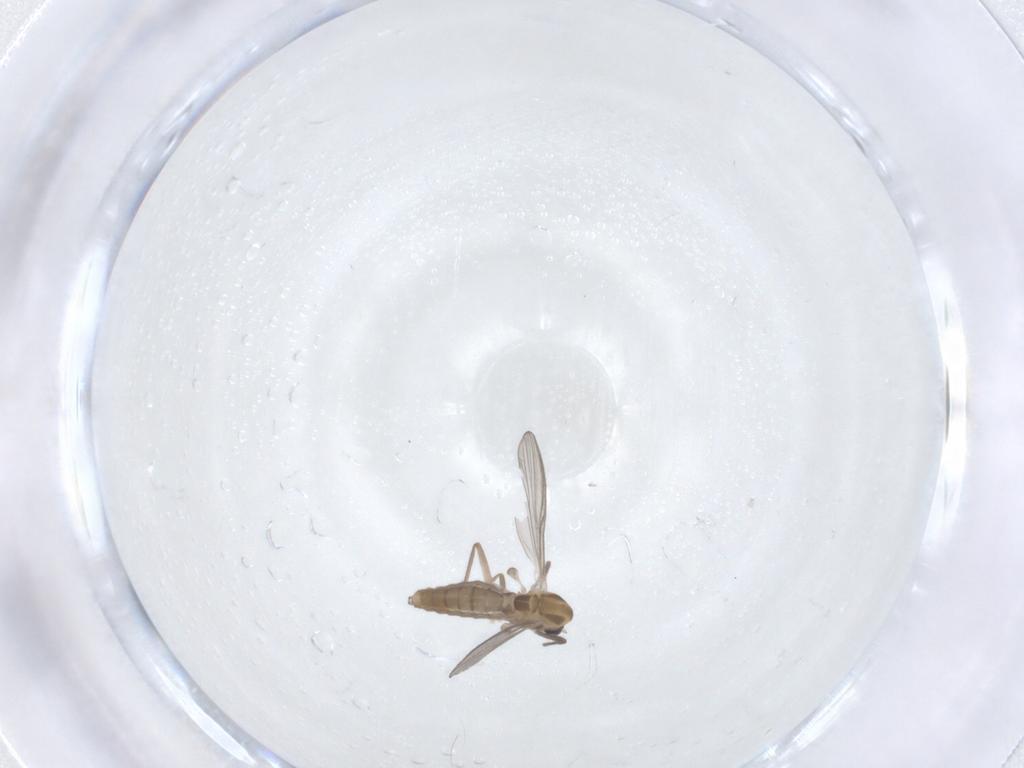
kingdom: Animalia
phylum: Arthropoda
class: Insecta
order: Diptera
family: Chironomidae
